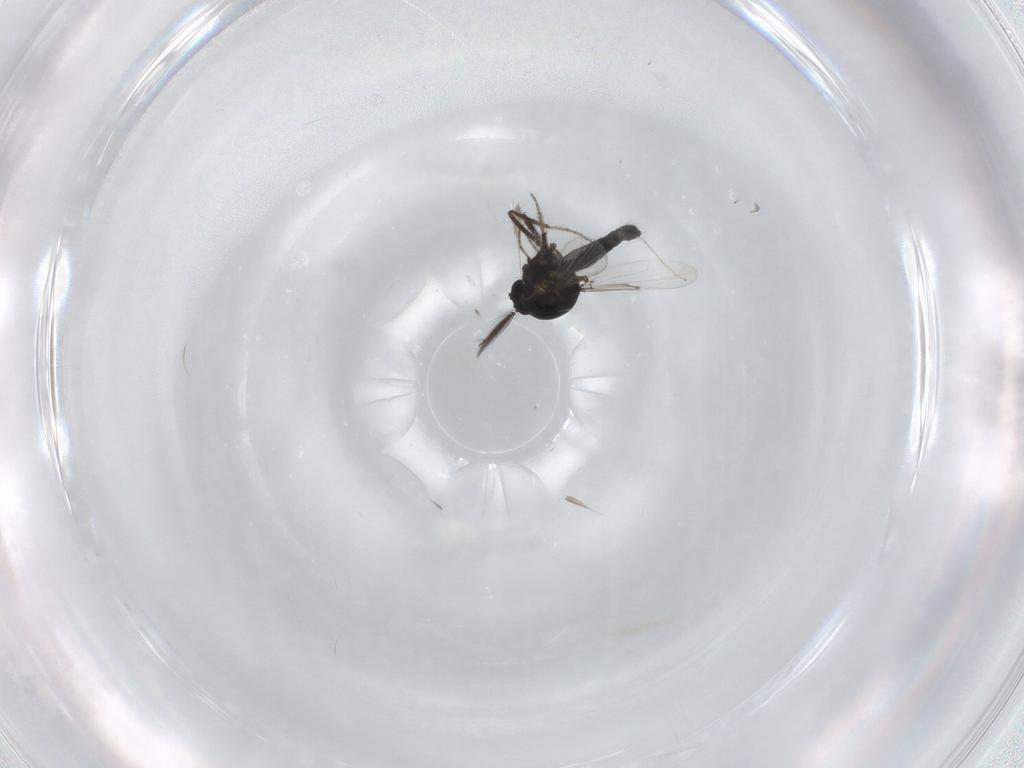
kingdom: Animalia
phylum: Arthropoda
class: Insecta
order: Diptera
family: Ceratopogonidae
